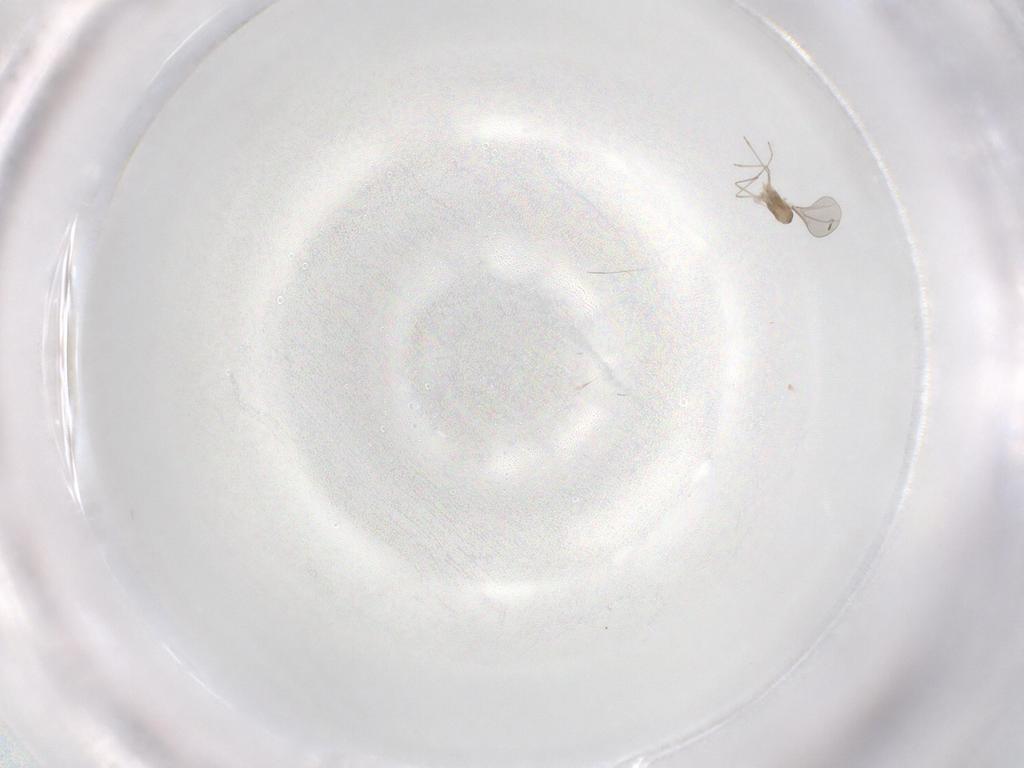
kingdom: Animalia
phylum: Arthropoda
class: Insecta
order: Diptera
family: Cecidomyiidae
